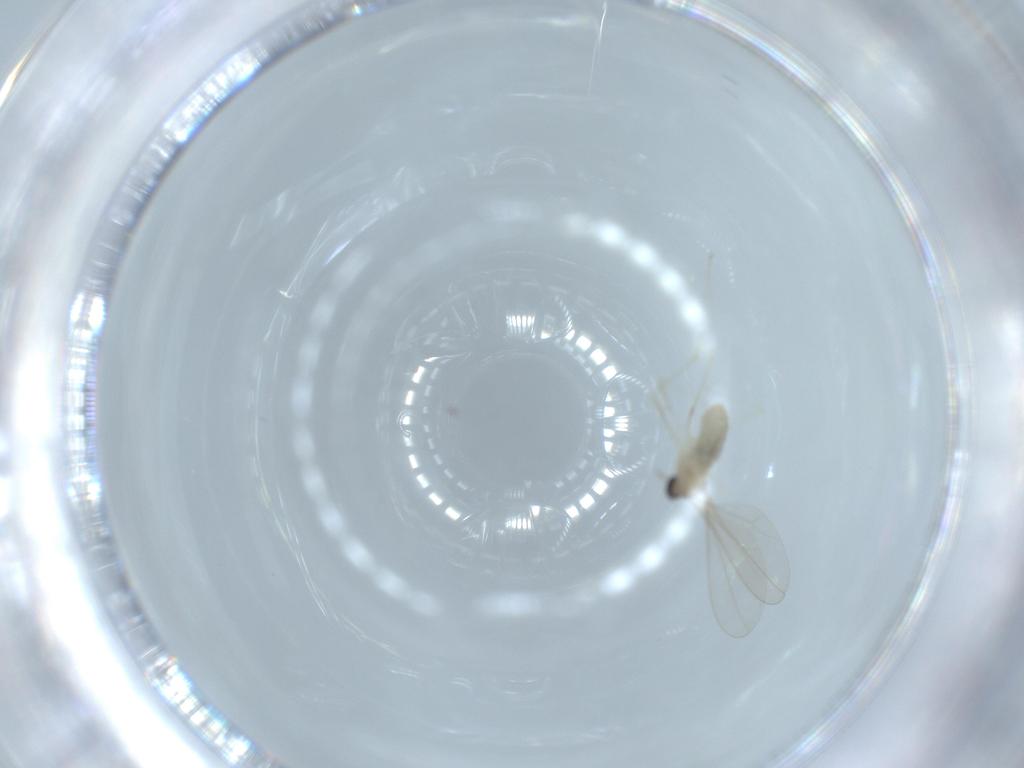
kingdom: Animalia
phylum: Arthropoda
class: Insecta
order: Diptera
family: Cecidomyiidae
